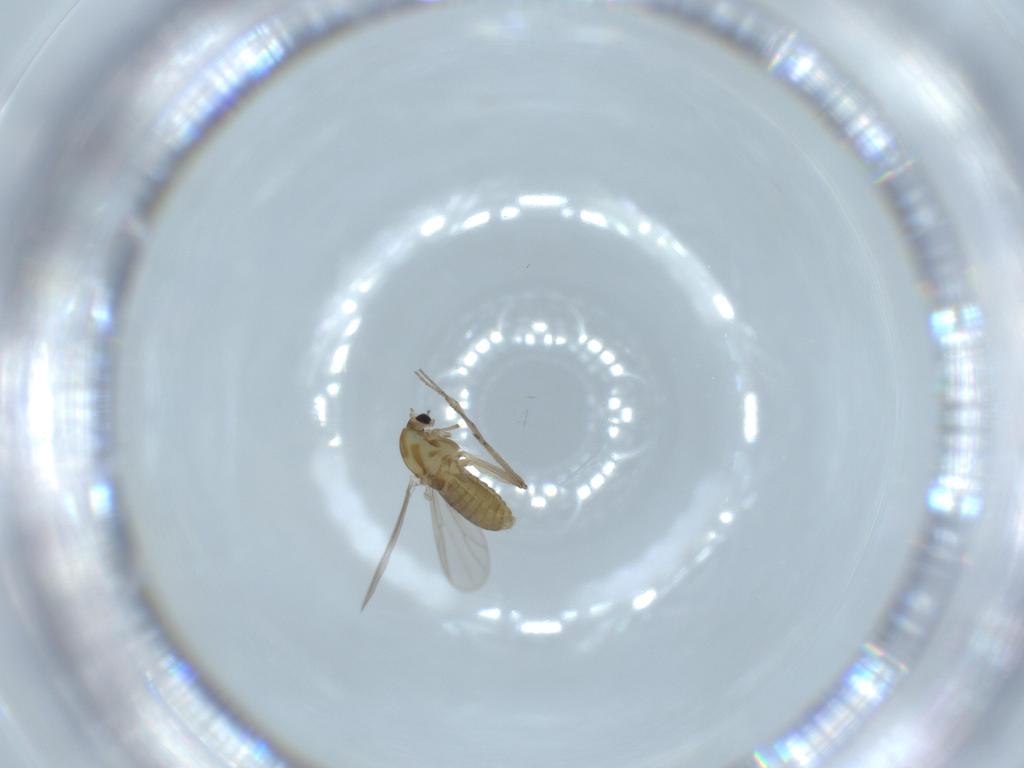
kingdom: Animalia
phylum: Arthropoda
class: Insecta
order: Diptera
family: Chironomidae
